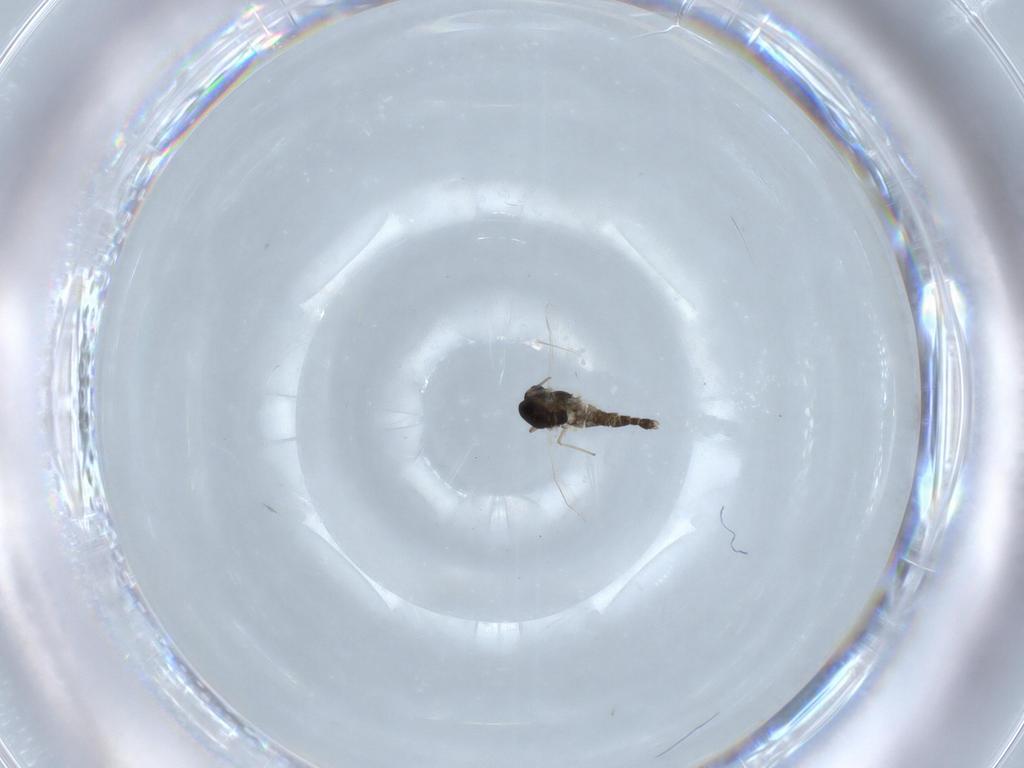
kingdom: Animalia
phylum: Arthropoda
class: Insecta
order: Diptera
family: Chironomidae
